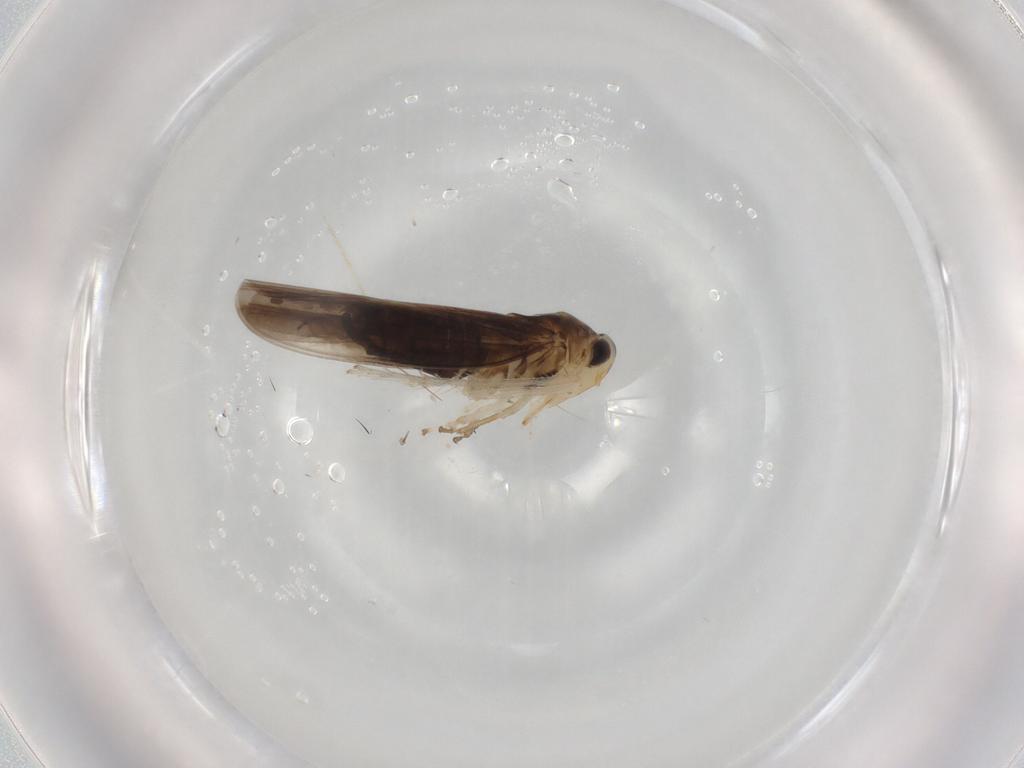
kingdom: Animalia
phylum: Arthropoda
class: Insecta
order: Hemiptera
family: Cicadellidae
